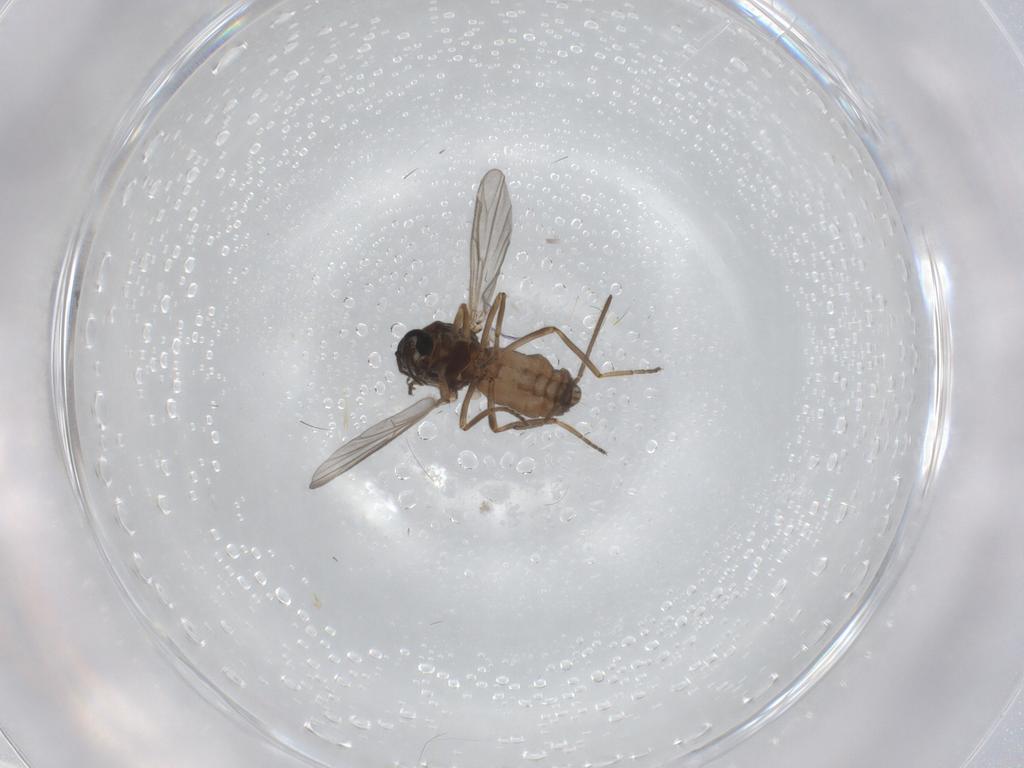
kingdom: Animalia
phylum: Arthropoda
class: Insecta
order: Diptera
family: Ceratopogonidae
